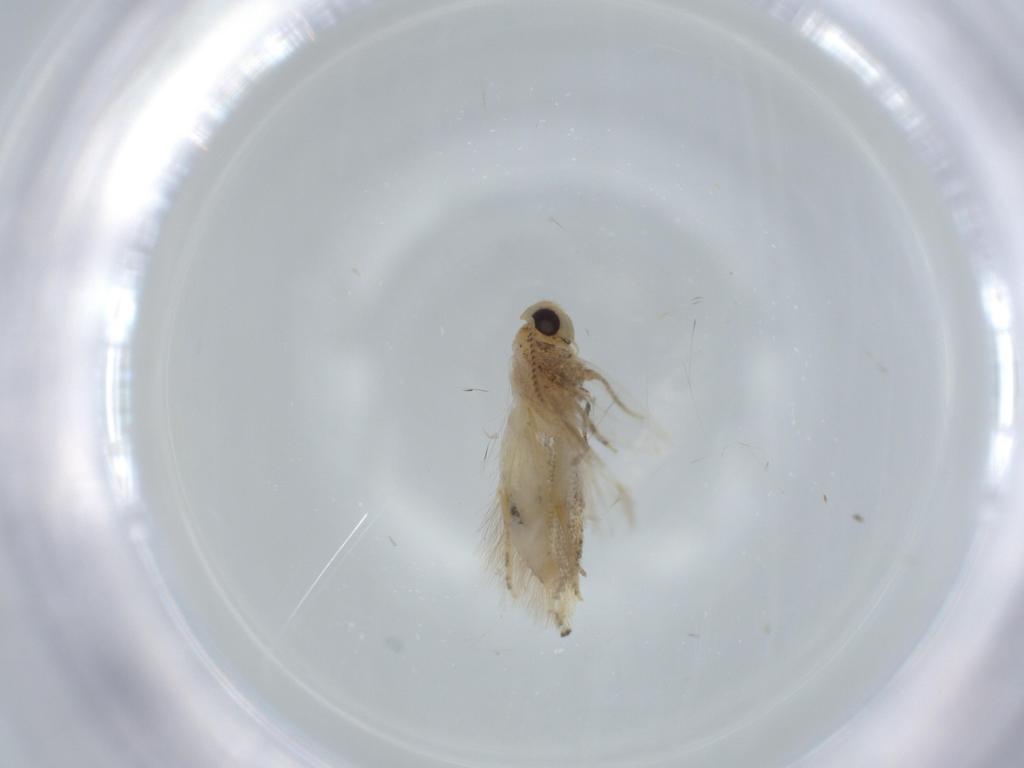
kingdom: Animalia
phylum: Arthropoda
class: Insecta
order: Lepidoptera
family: Bucculatricidae
